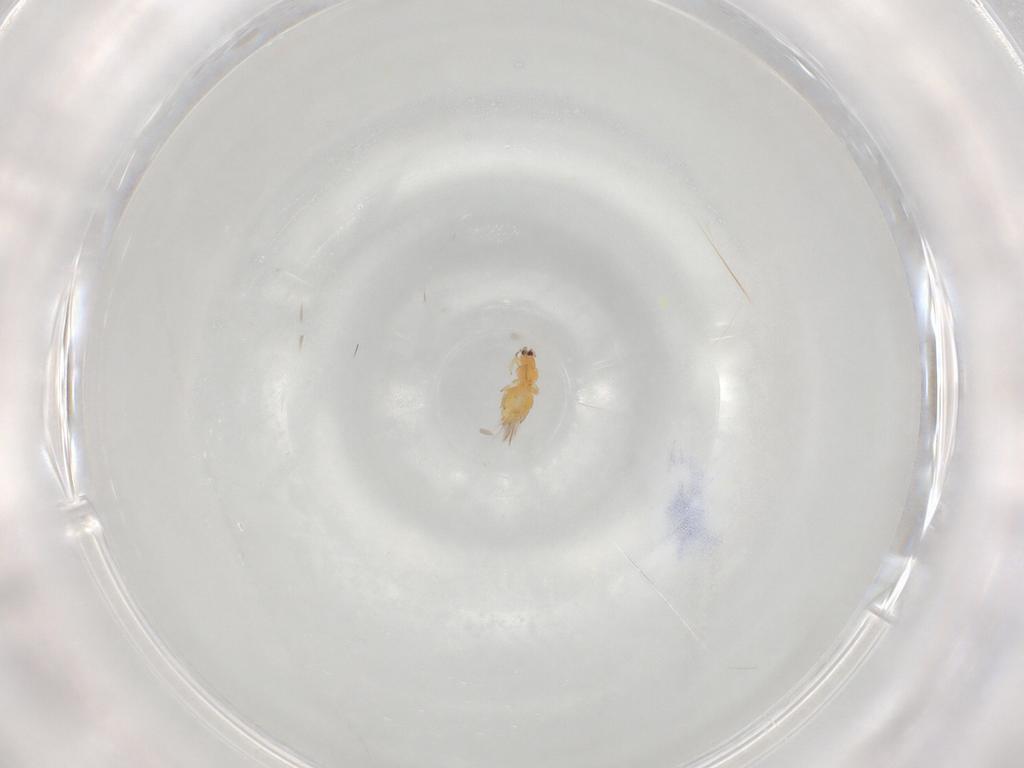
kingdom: Animalia
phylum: Arthropoda
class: Insecta
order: Thysanoptera
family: Thripidae
